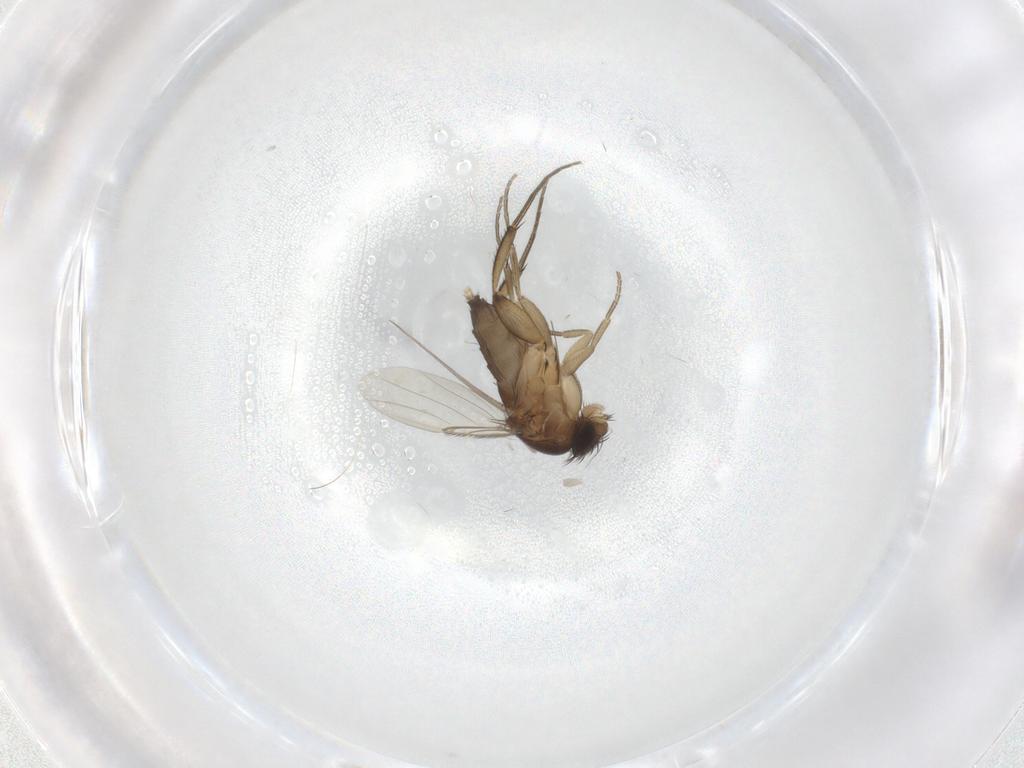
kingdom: Animalia
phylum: Arthropoda
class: Insecta
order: Diptera
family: Phoridae
